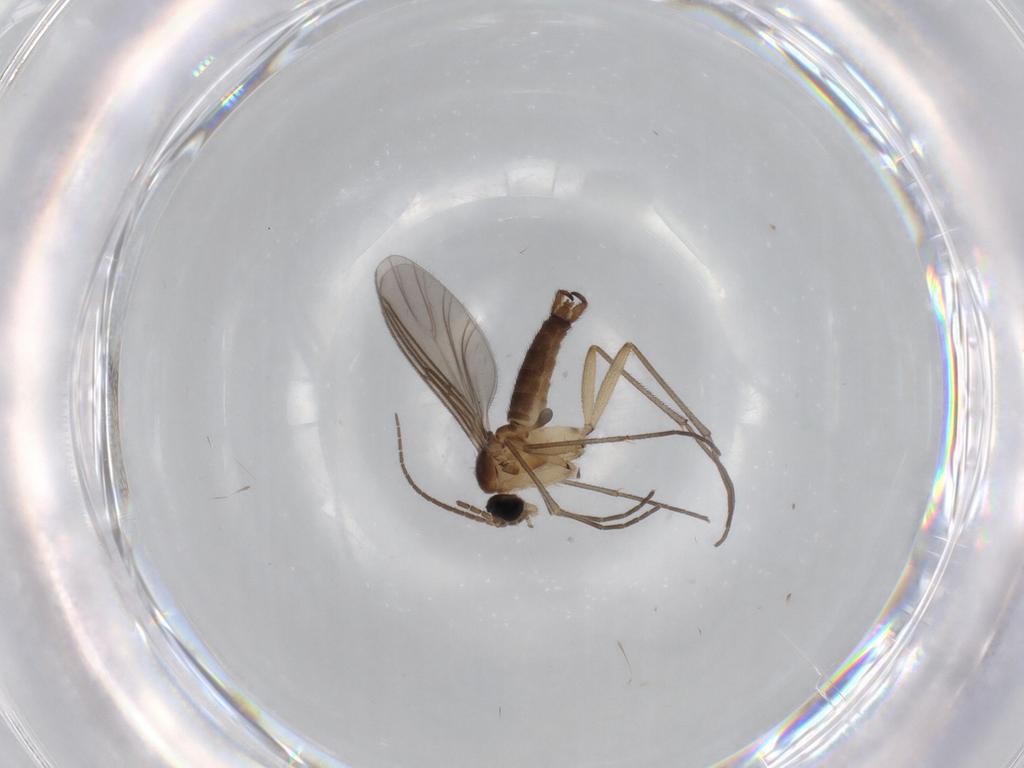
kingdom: Animalia
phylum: Arthropoda
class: Insecta
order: Diptera
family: Sciaridae
